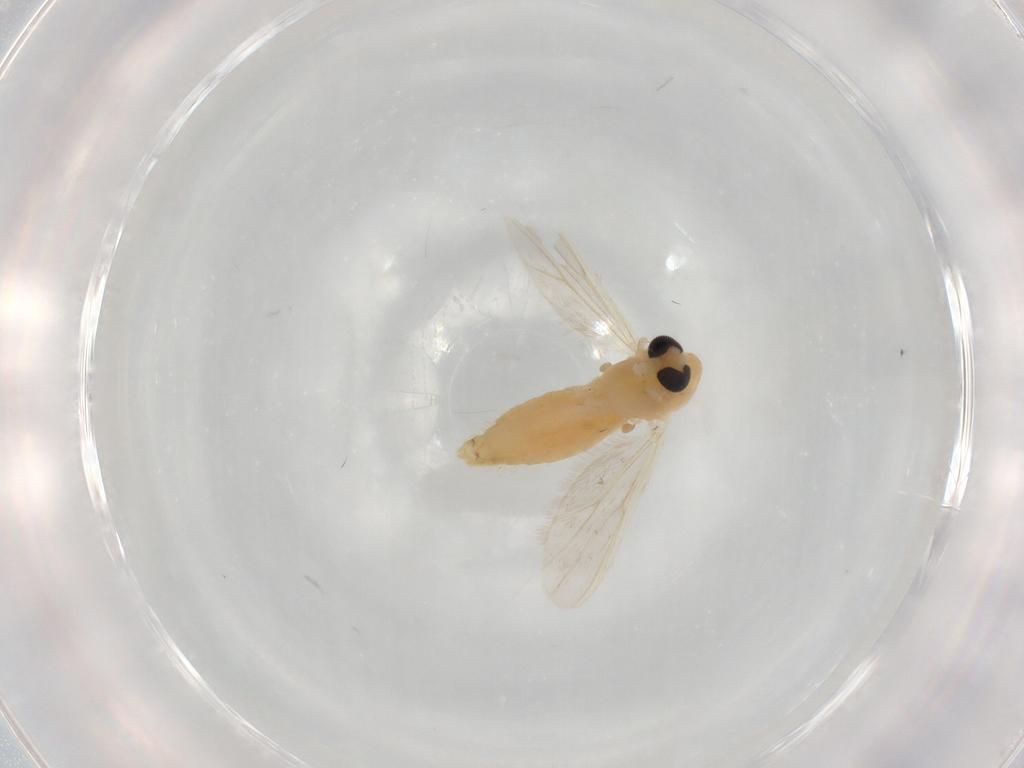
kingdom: Animalia
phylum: Arthropoda
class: Insecta
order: Diptera
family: Chironomidae
